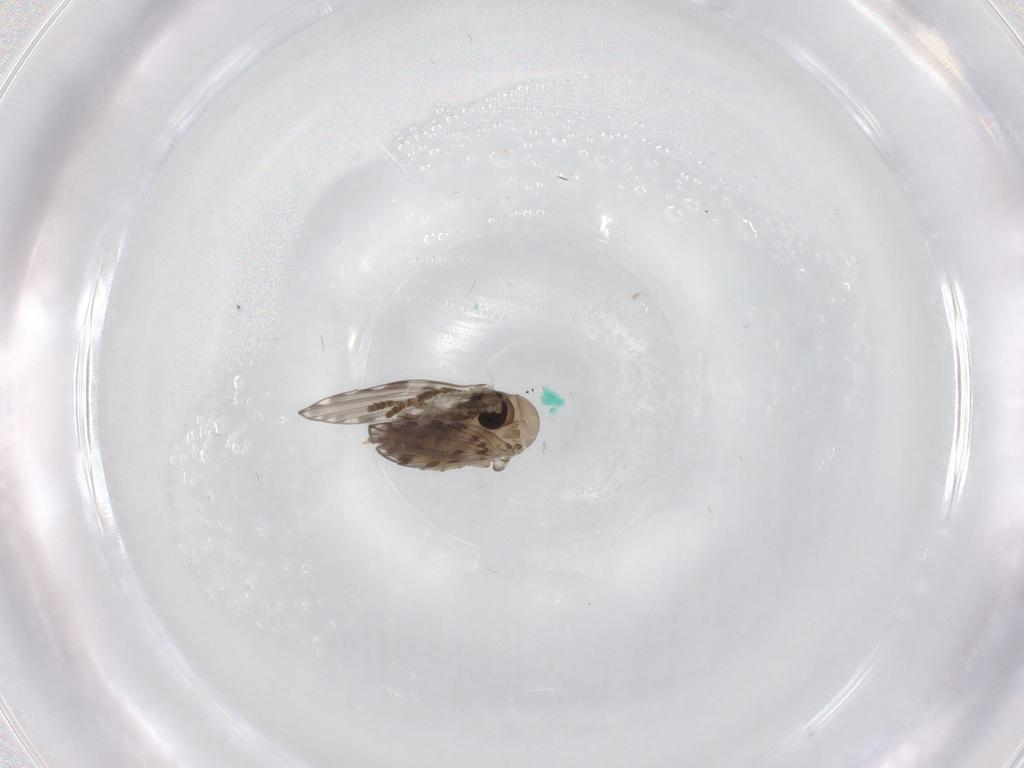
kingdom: Animalia
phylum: Arthropoda
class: Insecta
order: Diptera
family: Psychodidae
